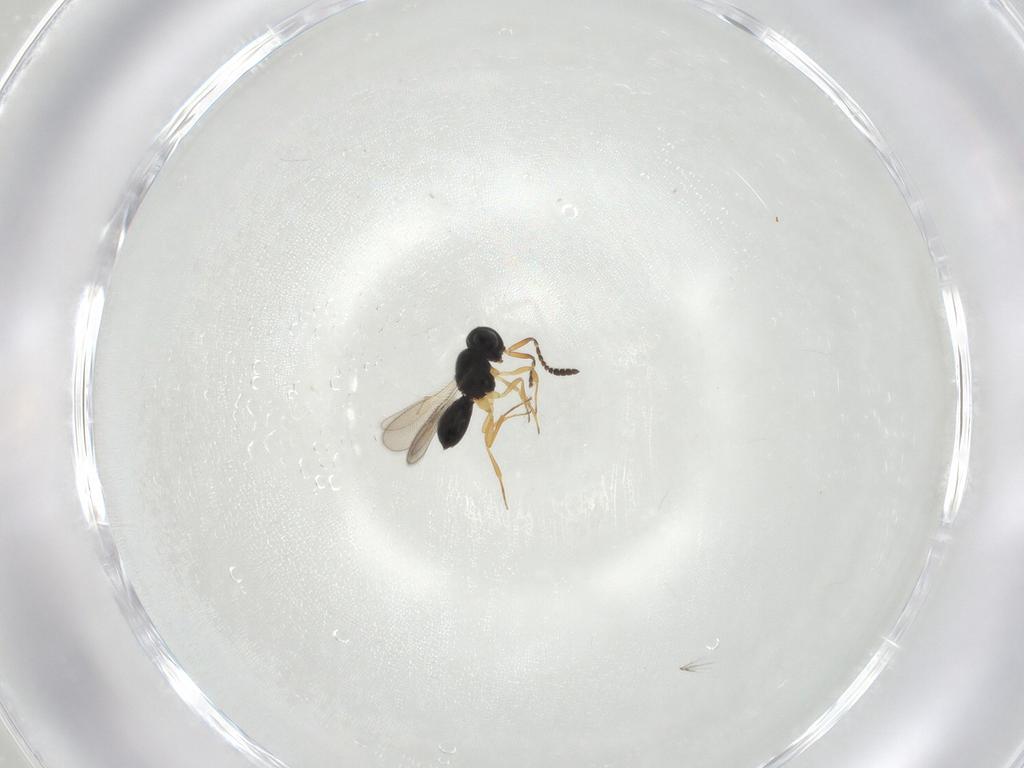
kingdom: Animalia
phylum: Arthropoda
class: Insecta
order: Hymenoptera
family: Scelionidae
